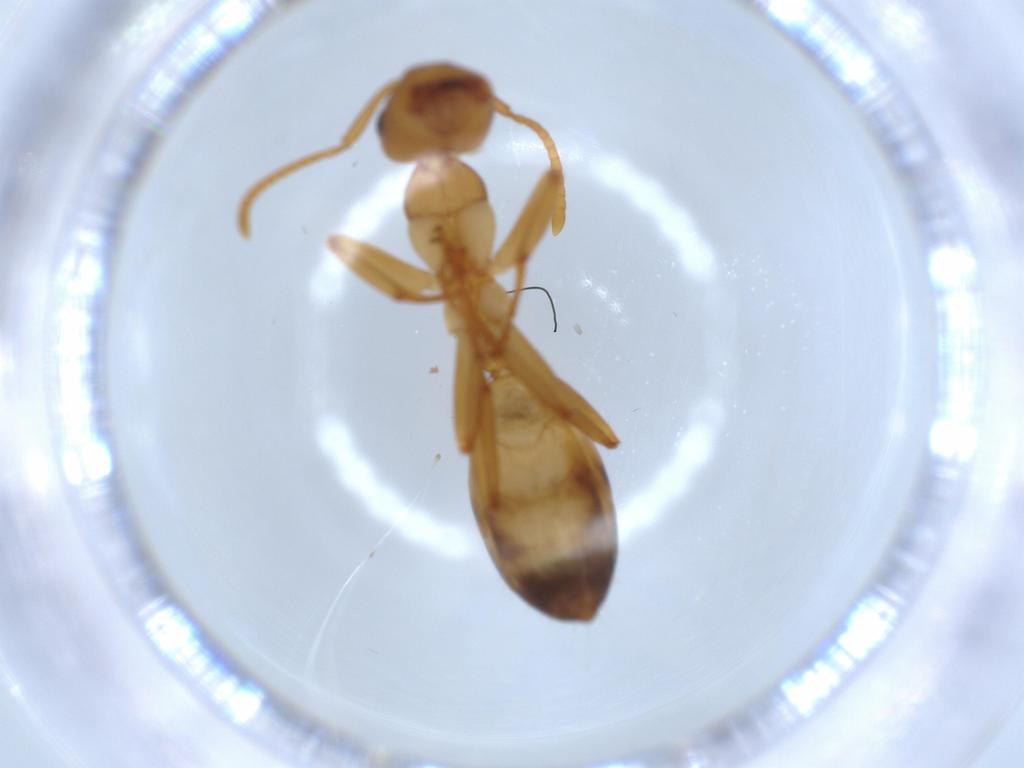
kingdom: Animalia
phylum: Arthropoda
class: Insecta
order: Hymenoptera
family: Formicidae
